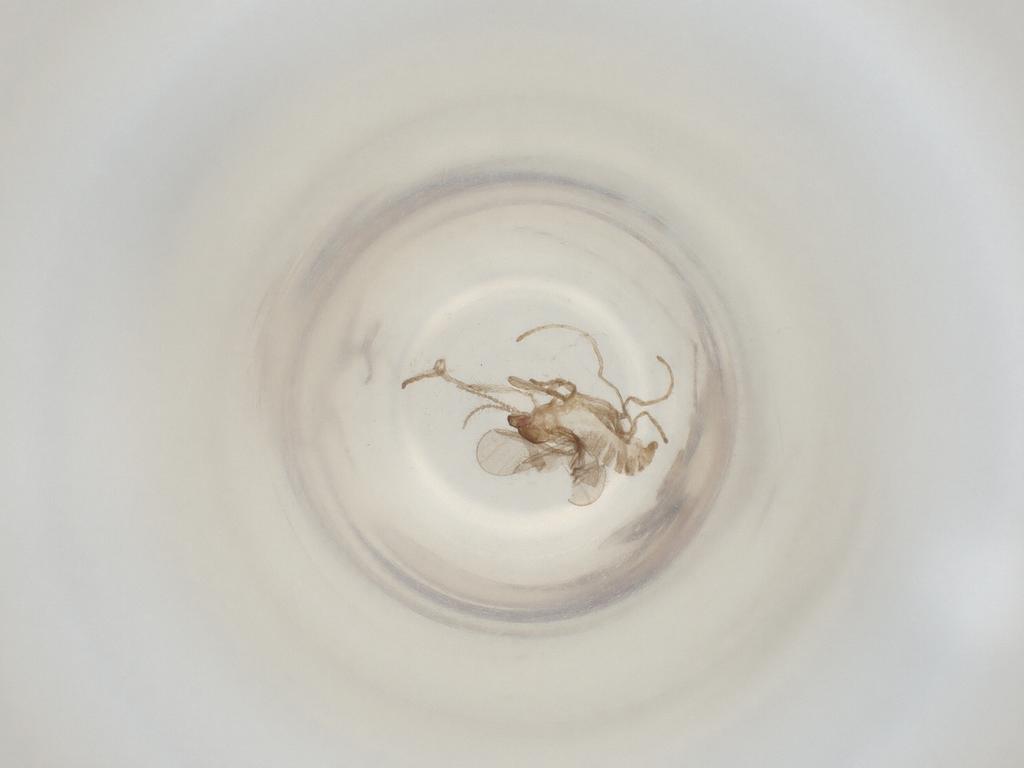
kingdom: Animalia
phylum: Arthropoda
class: Insecta
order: Diptera
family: Cecidomyiidae
